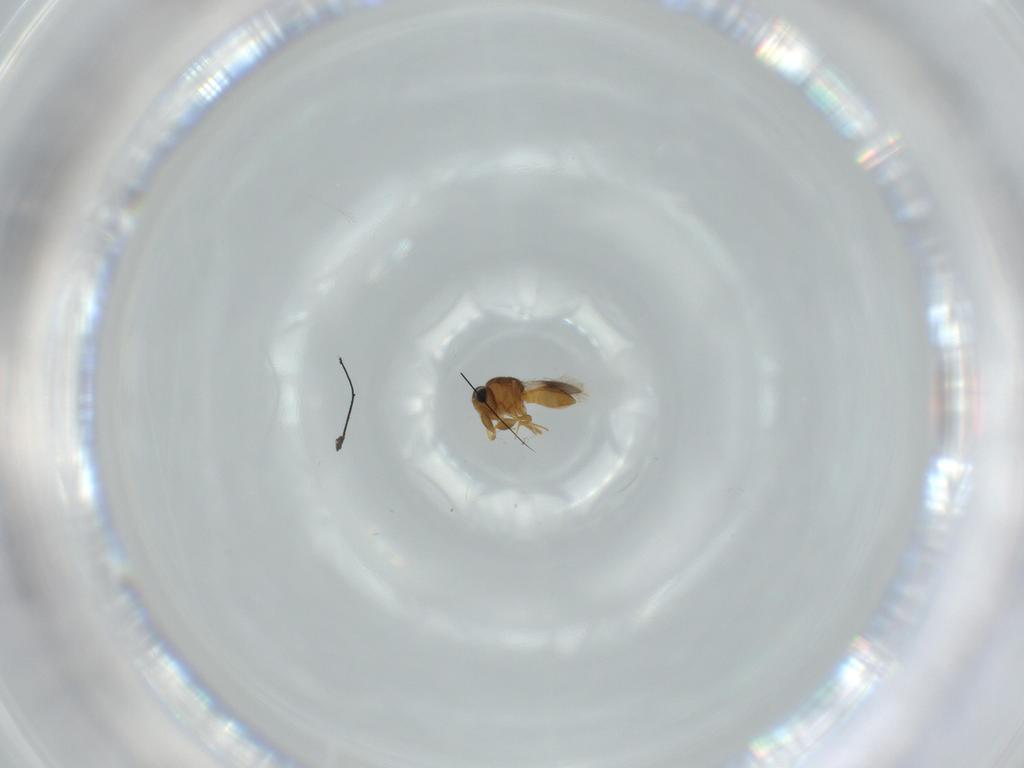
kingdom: Animalia
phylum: Arthropoda
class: Insecta
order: Hymenoptera
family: Scelionidae
